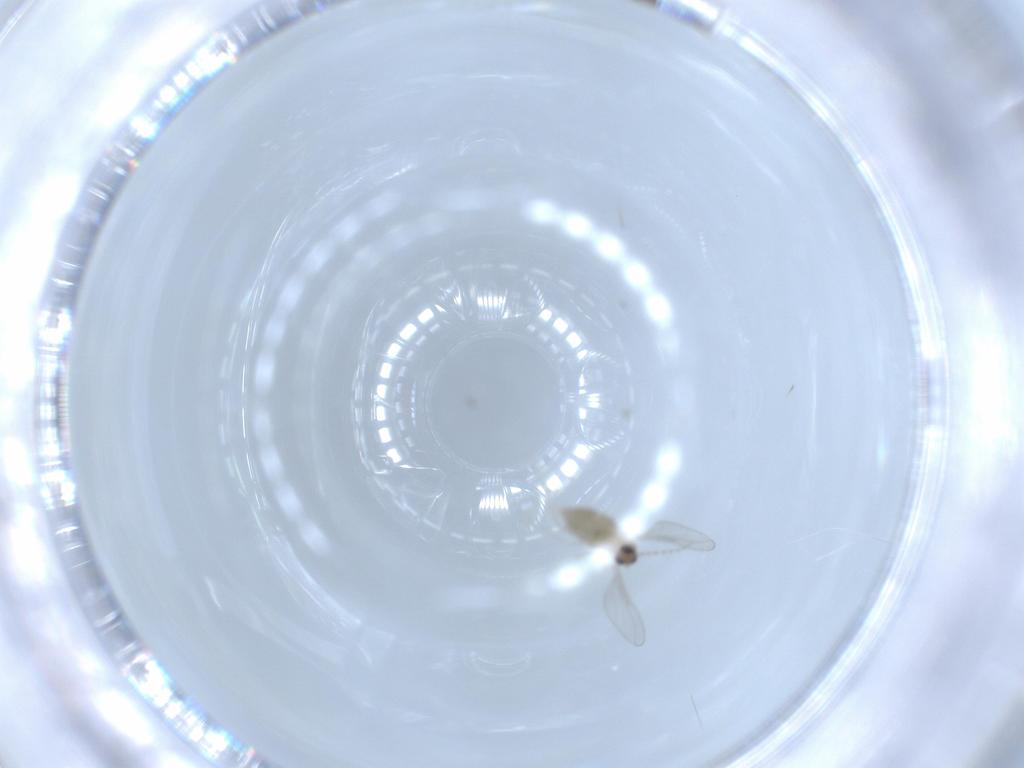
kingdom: Animalia
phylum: Arthropoda
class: Insecta
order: Diptera
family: Cecidomyiidae
